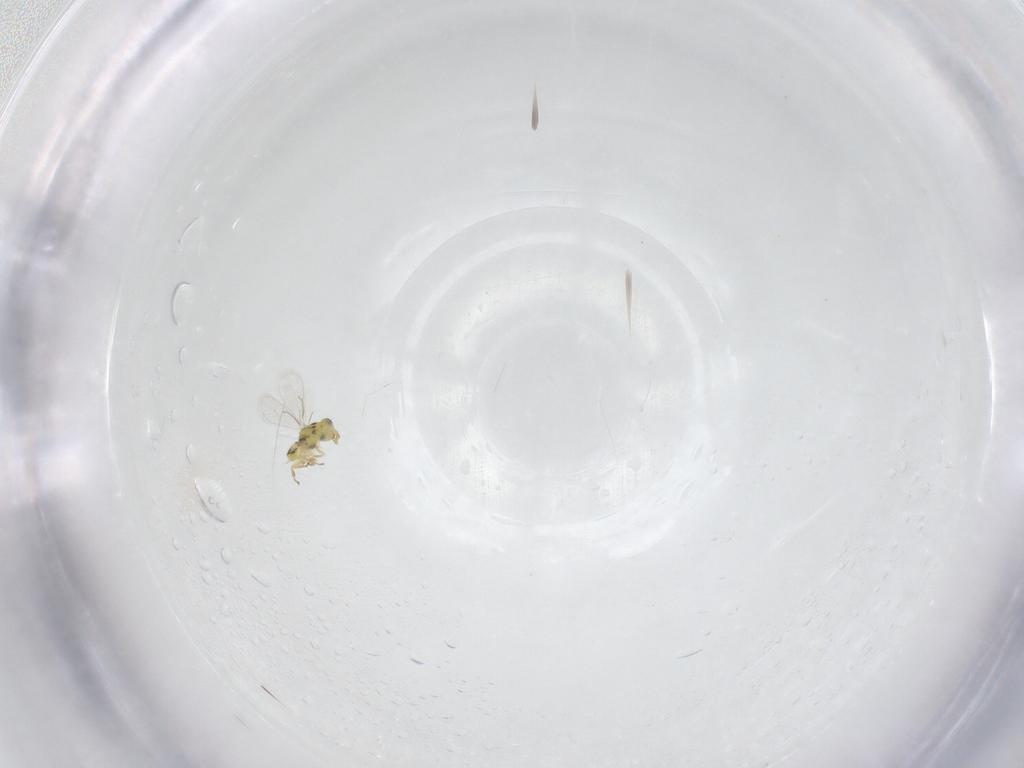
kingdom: Animalia
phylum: Arthropoda
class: Insecta
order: Hymenoptera
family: Eulophidae
